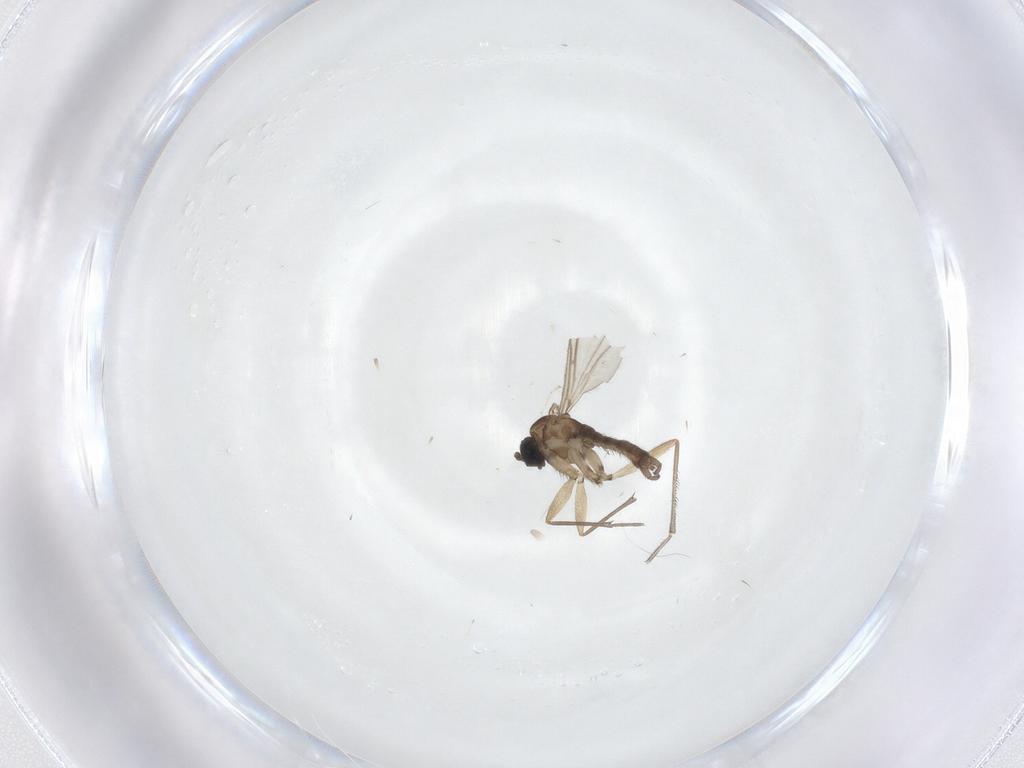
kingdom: Animalia
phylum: Arthropoda
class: Insecta
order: Diptera
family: Sciaridae
